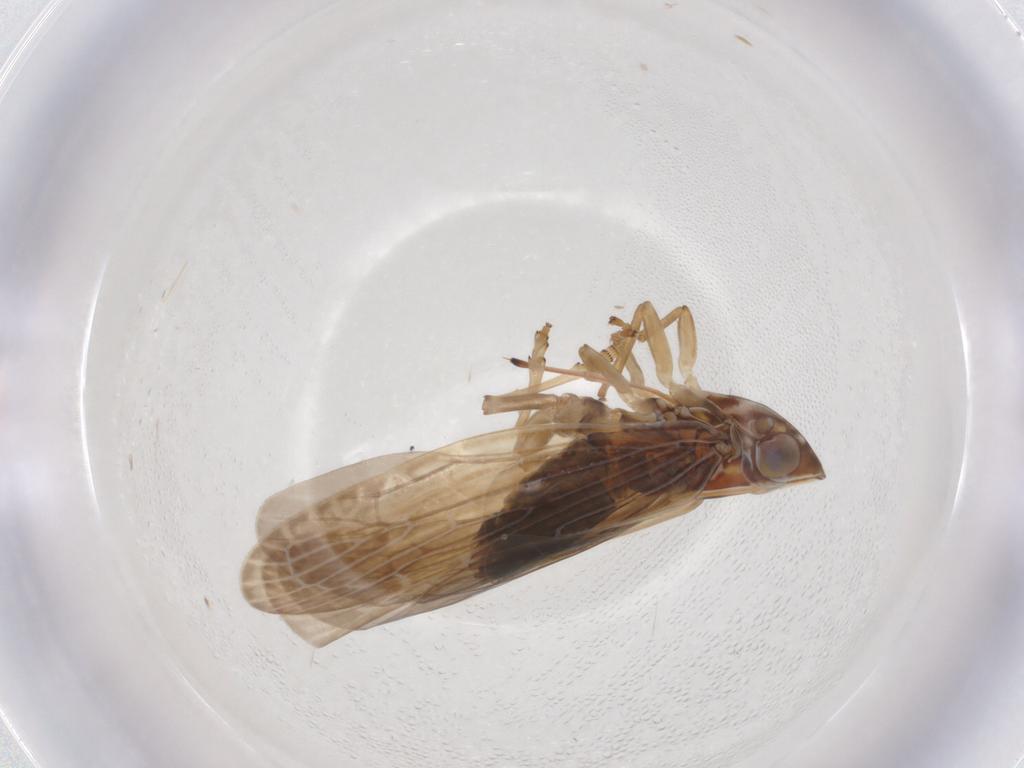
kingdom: Animalia
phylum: Arthropoda
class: Insecta
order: Hemiptera
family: Achilidae
